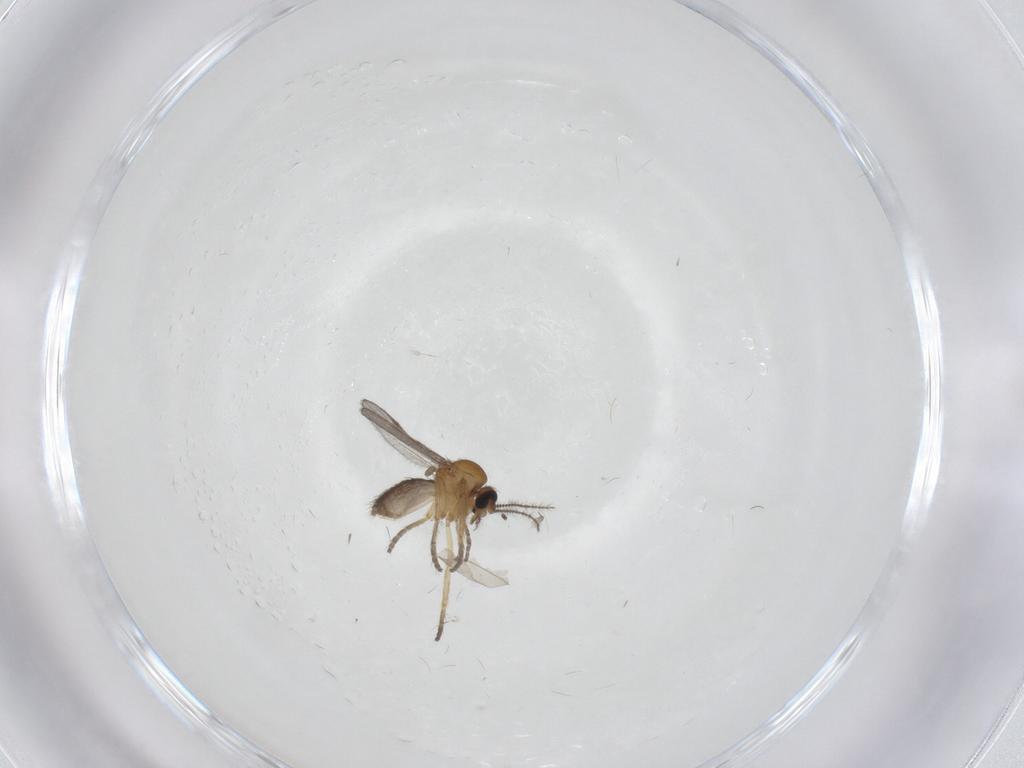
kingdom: Animalia
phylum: Arthropoda
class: Insecta
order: Diptera
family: Ceratopogonidae
